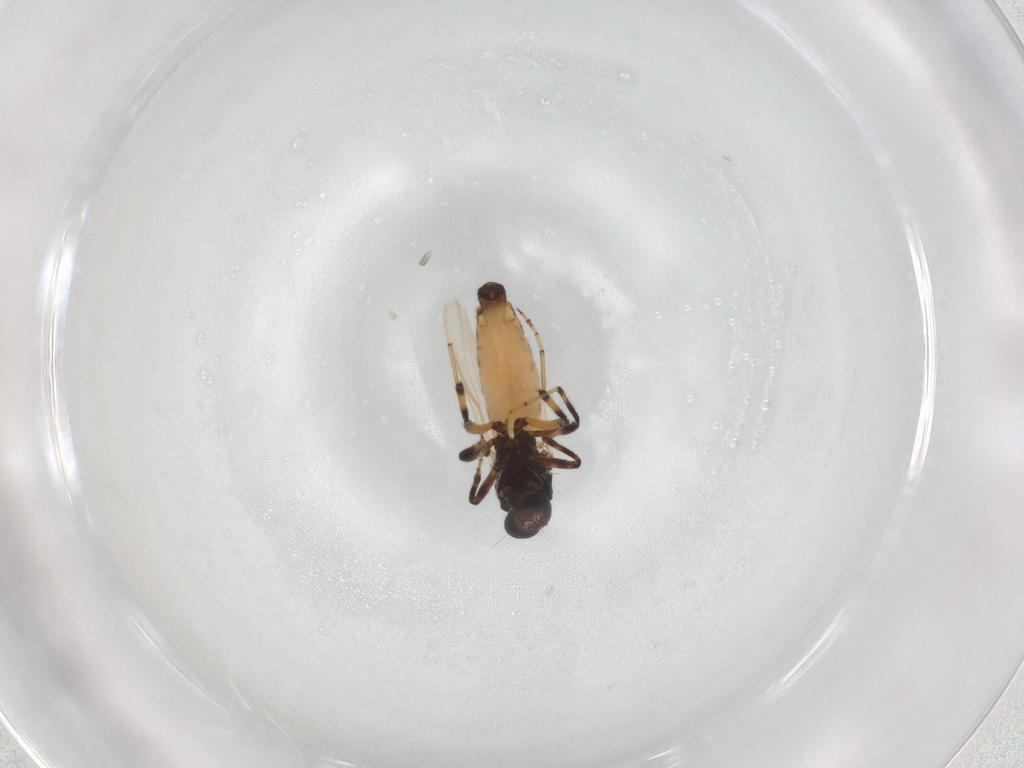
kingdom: Animalia
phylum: Arthropoda
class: Insecta
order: Diptera
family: Ceratopogonidae
